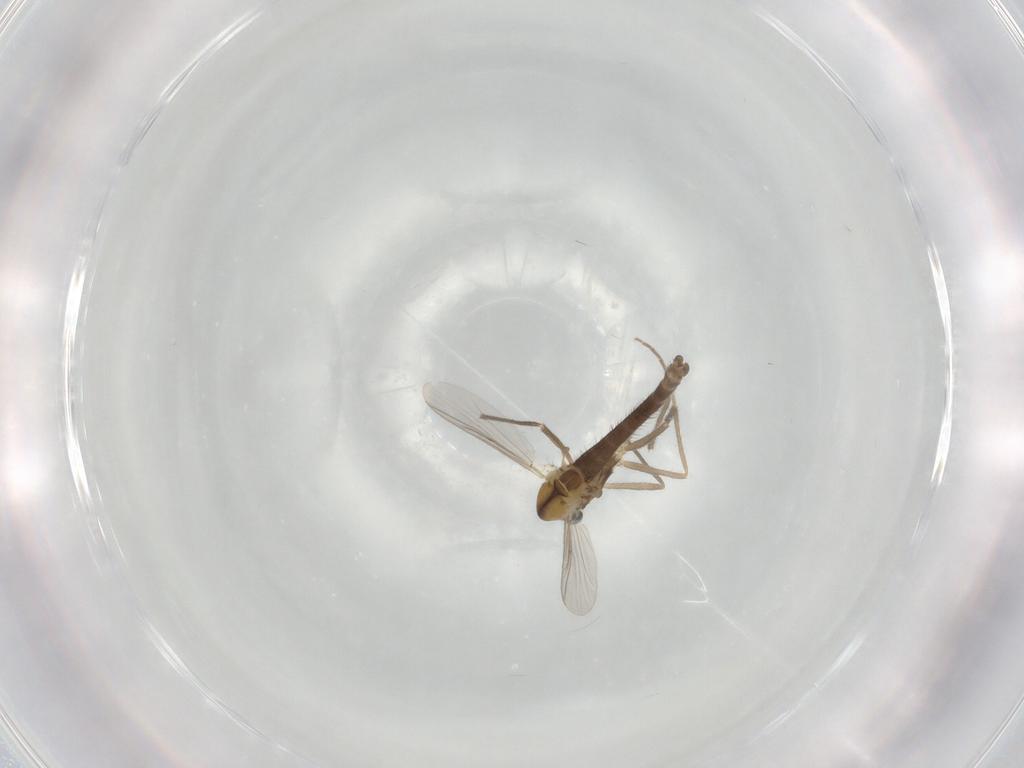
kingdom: Animalia
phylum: Arthropoda
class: Insecta
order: Diptera
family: Chironomidae
